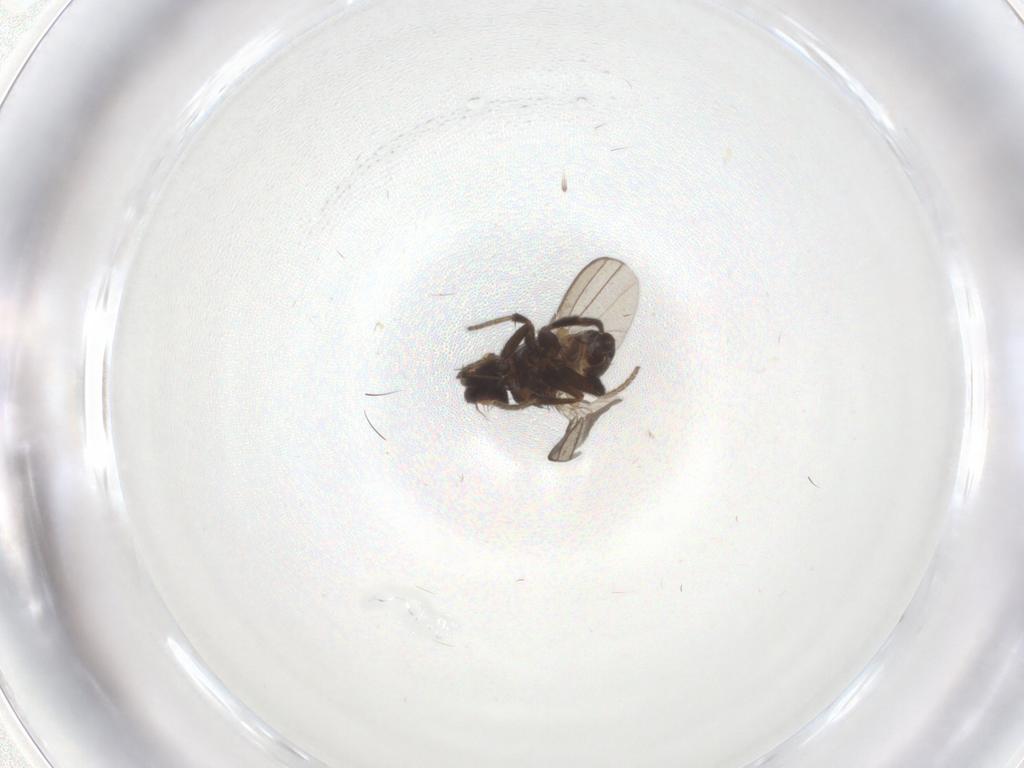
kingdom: Animalia
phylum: Arthropoda
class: Insecta
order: Diptera
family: Milichiidae
